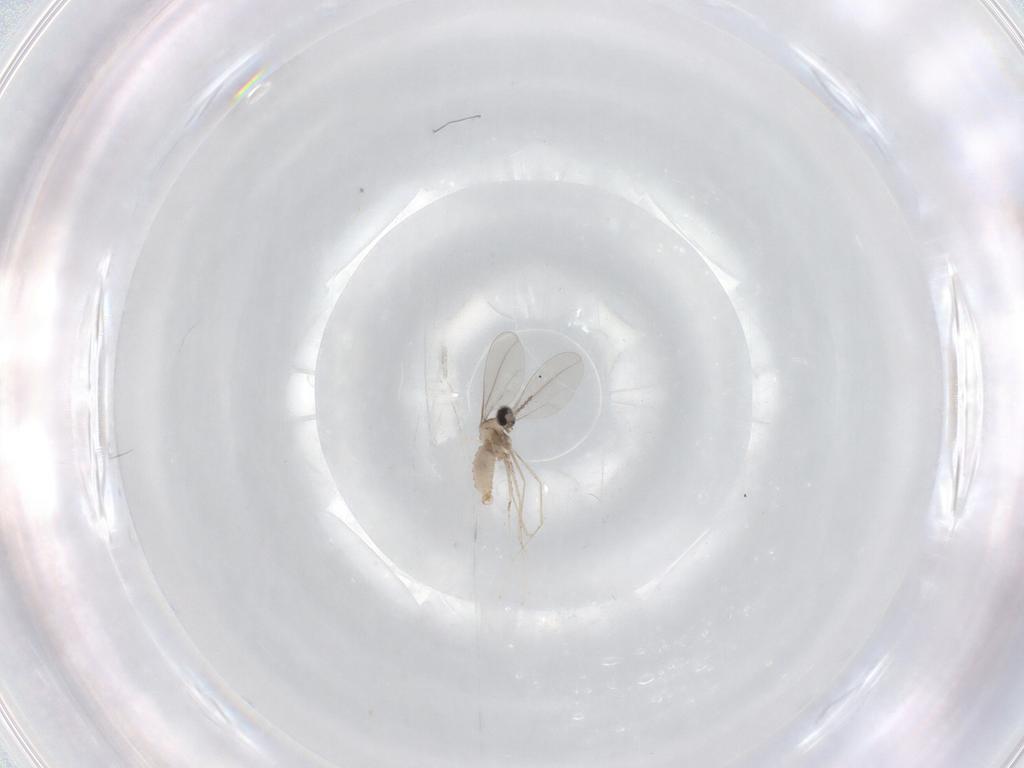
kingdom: Animalia
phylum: Arthropoda
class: Insecta
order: Diptera
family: Cecidomyiidae
